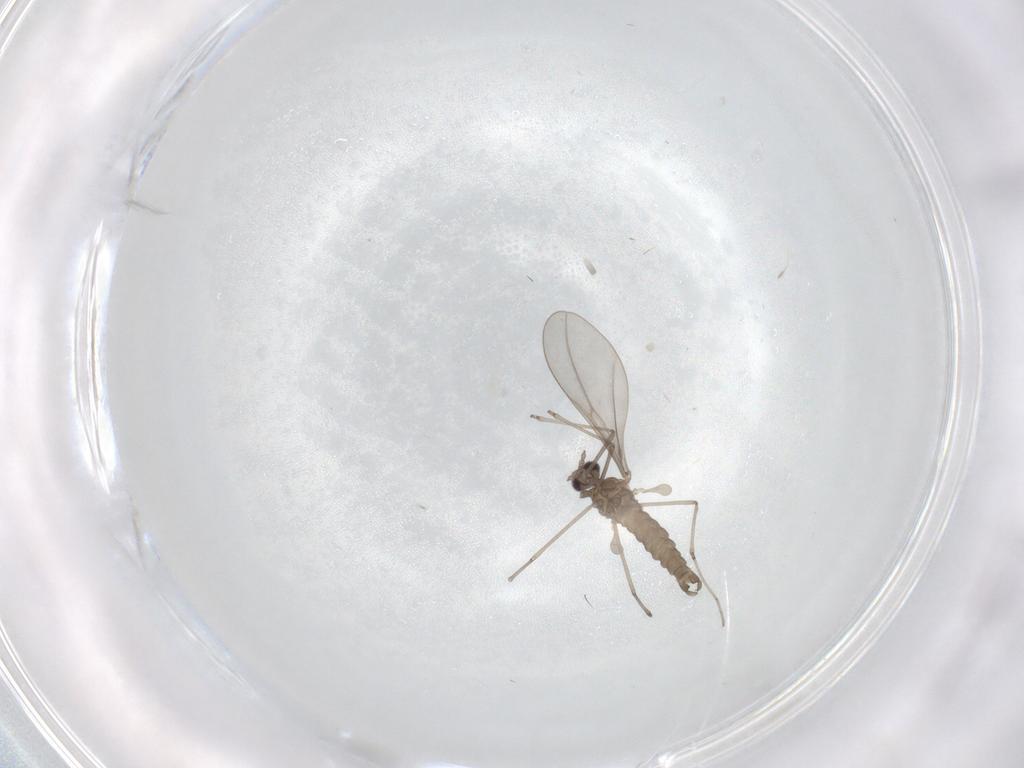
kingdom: Animalia
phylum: Arthropoda
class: Insecta
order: Diptera
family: Cecidomyiidae
